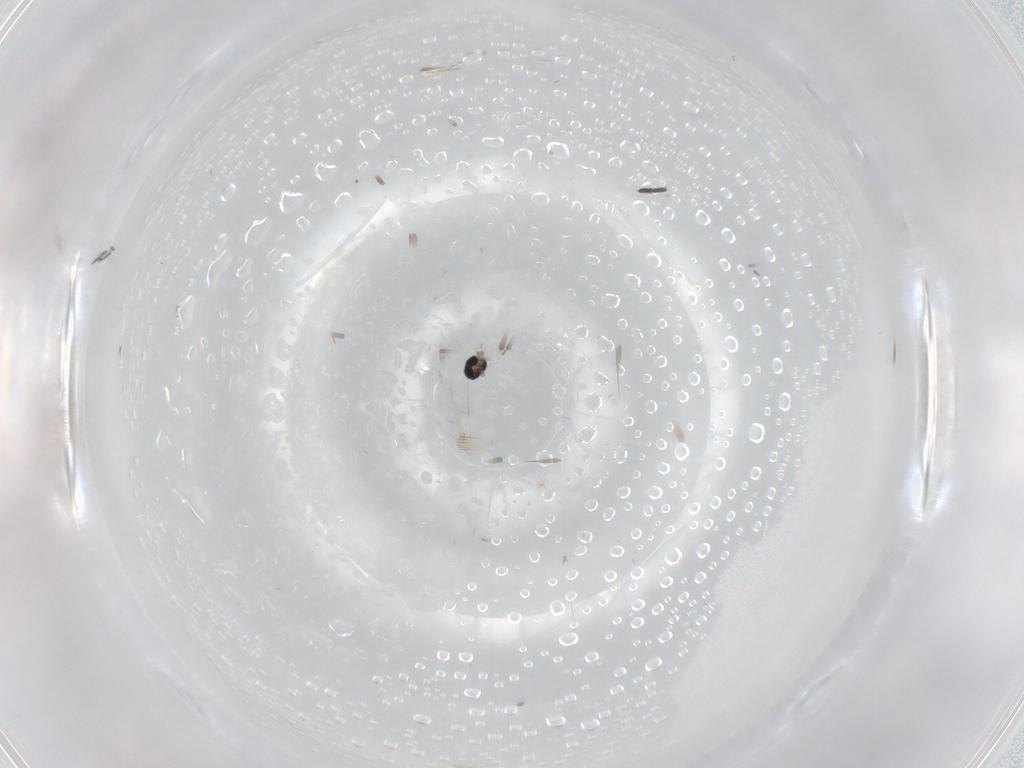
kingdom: Animalia
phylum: Arthropoda
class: Insecta
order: Diptera
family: Cecidomyiidae
